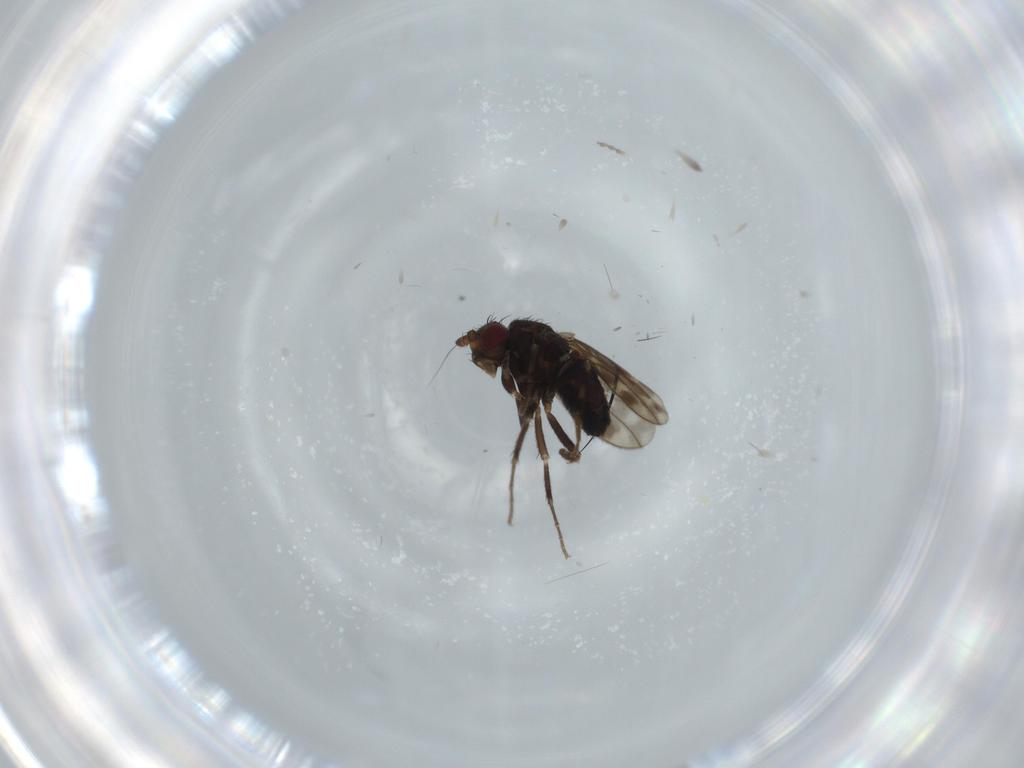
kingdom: Animalia
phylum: Arthropoda
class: Insecta
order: Diptera
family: Sphaeroceridae
